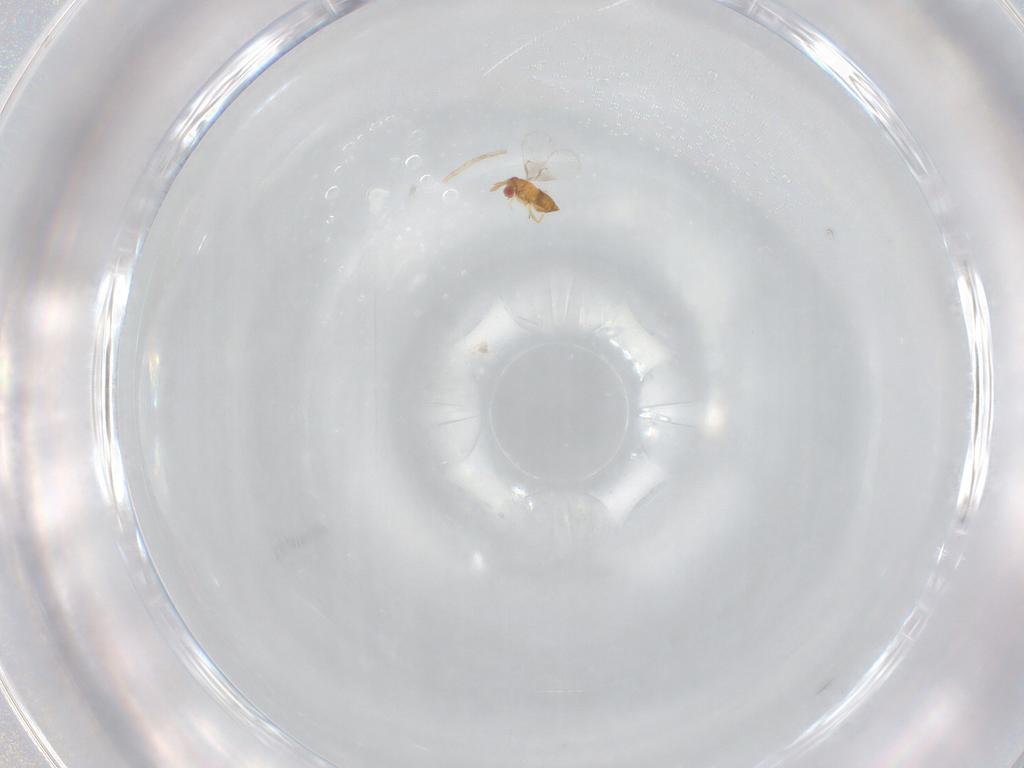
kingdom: Animalia
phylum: Arthropoda
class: Insecta
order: Hymenoptera
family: Trichogrammatidae
